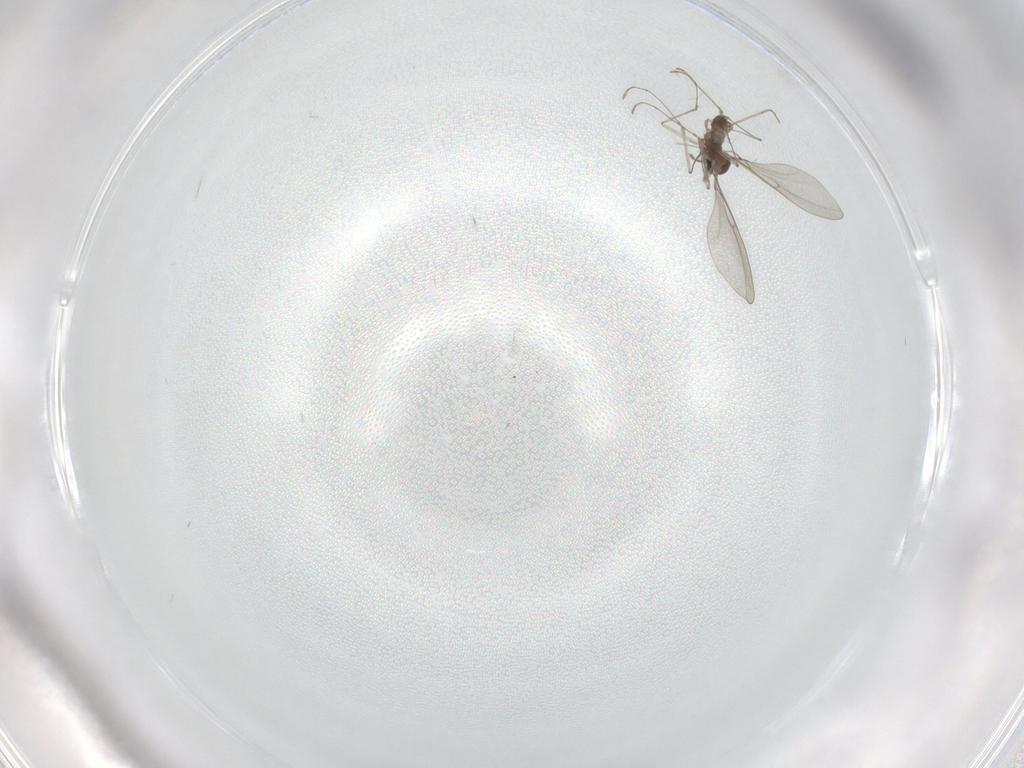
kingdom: Animalia
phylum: Arthropoda
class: Insecta
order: Diptera
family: Cecidomyiidae
